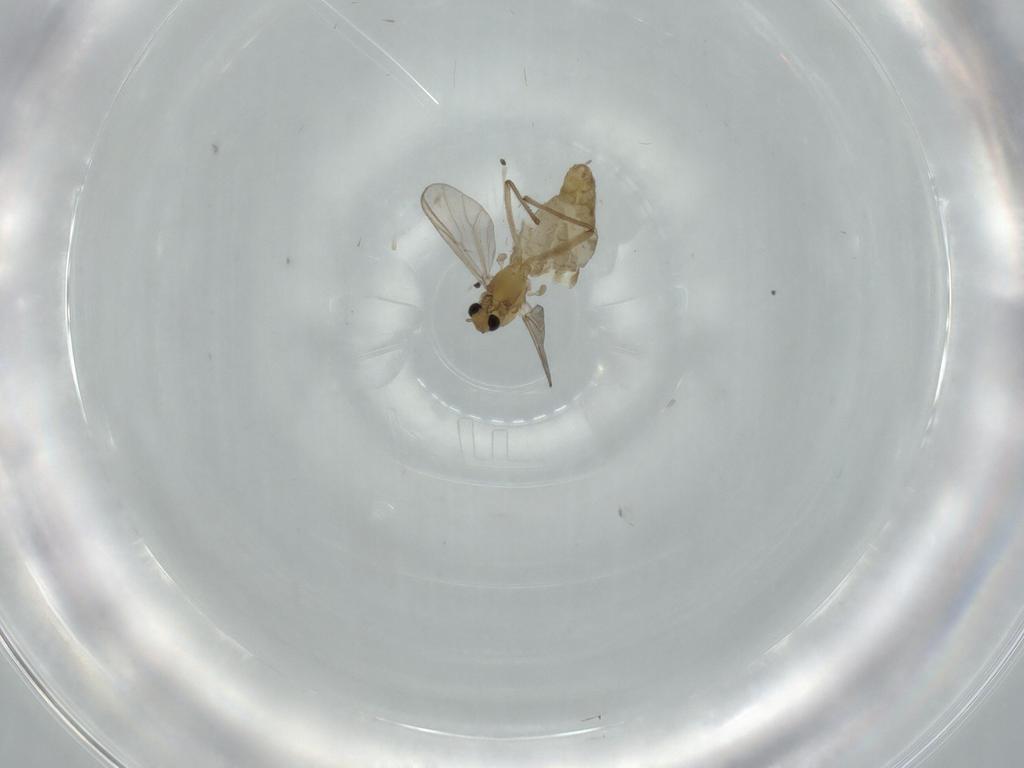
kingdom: Animalia
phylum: Arthropoda
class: Insecta
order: Diptera
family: Chironomidae
